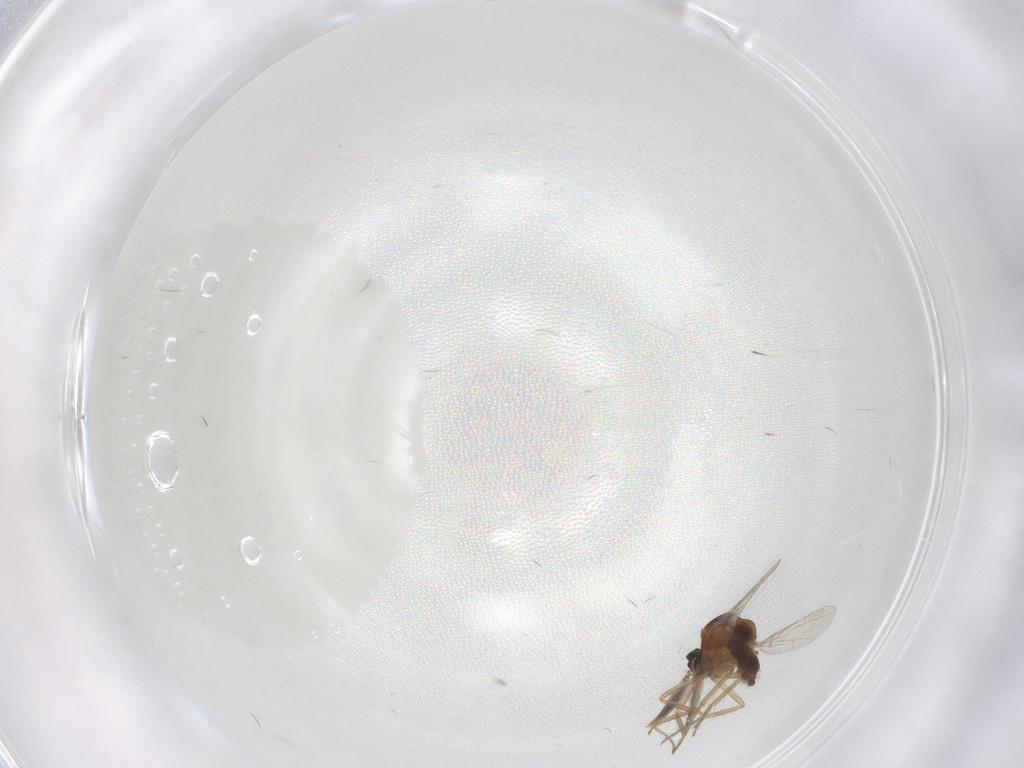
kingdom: Animalia
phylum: Arthropoda
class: Insecta
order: Diptera
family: Ceratopogonidae
